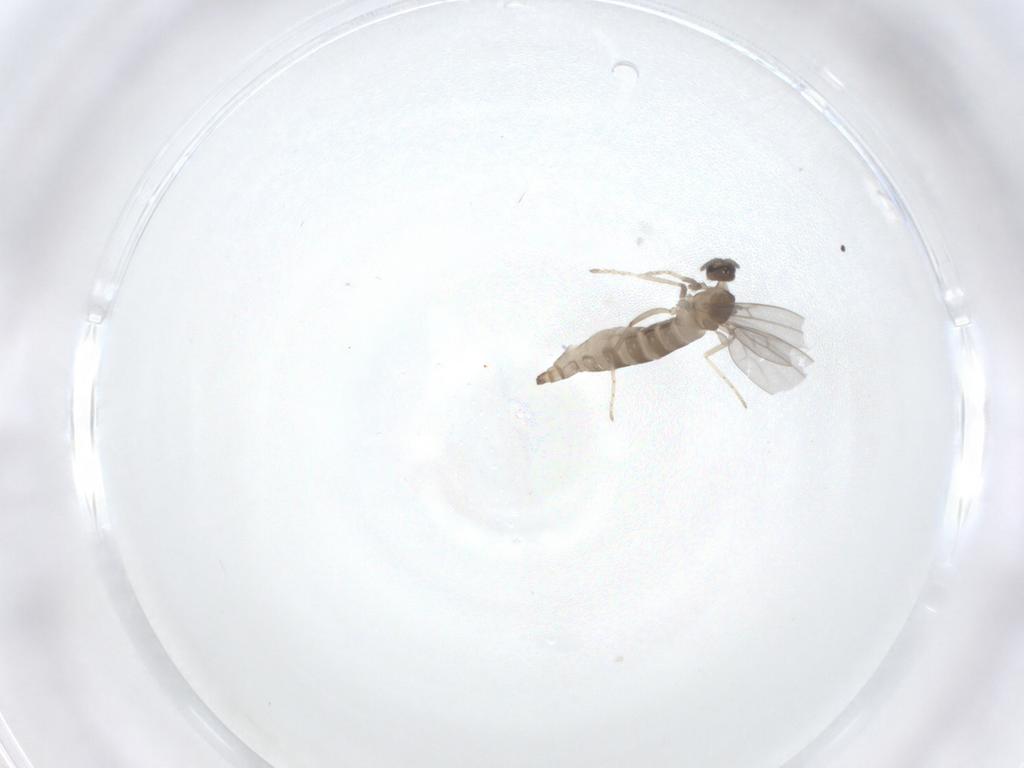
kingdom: Animalia
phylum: Arthropoda
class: Insecta
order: Diptera
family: Cecidomyiidae
